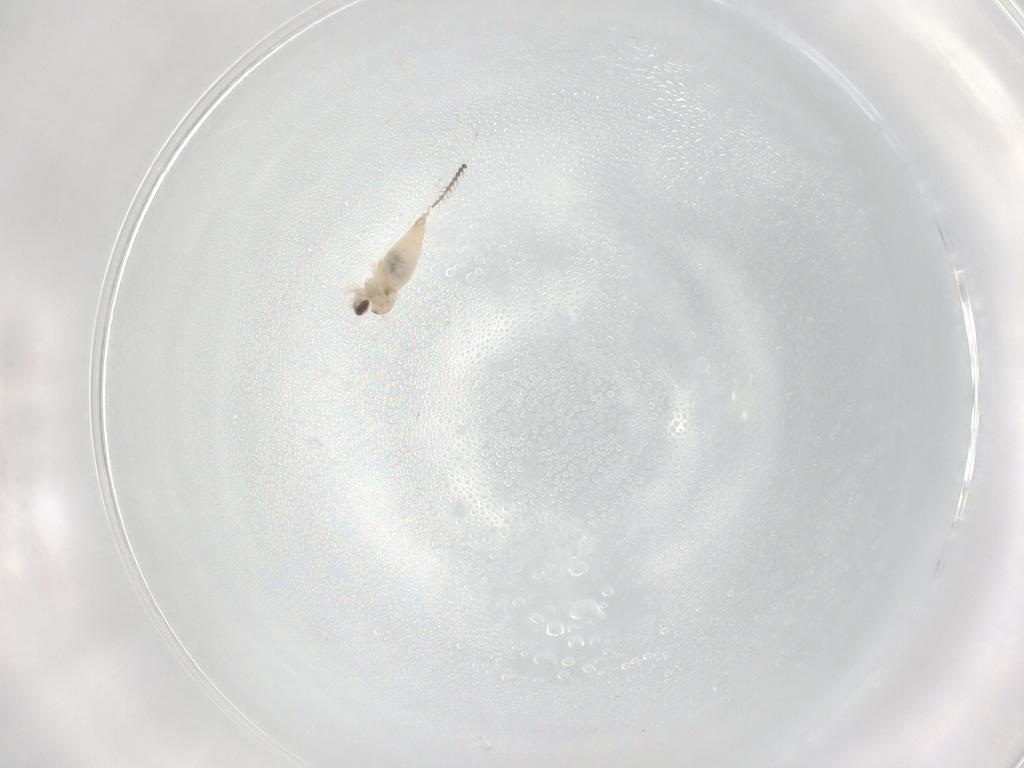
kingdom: Animalia
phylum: Arthropoda
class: Insecta
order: Diptera
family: Cecidomyiidae
